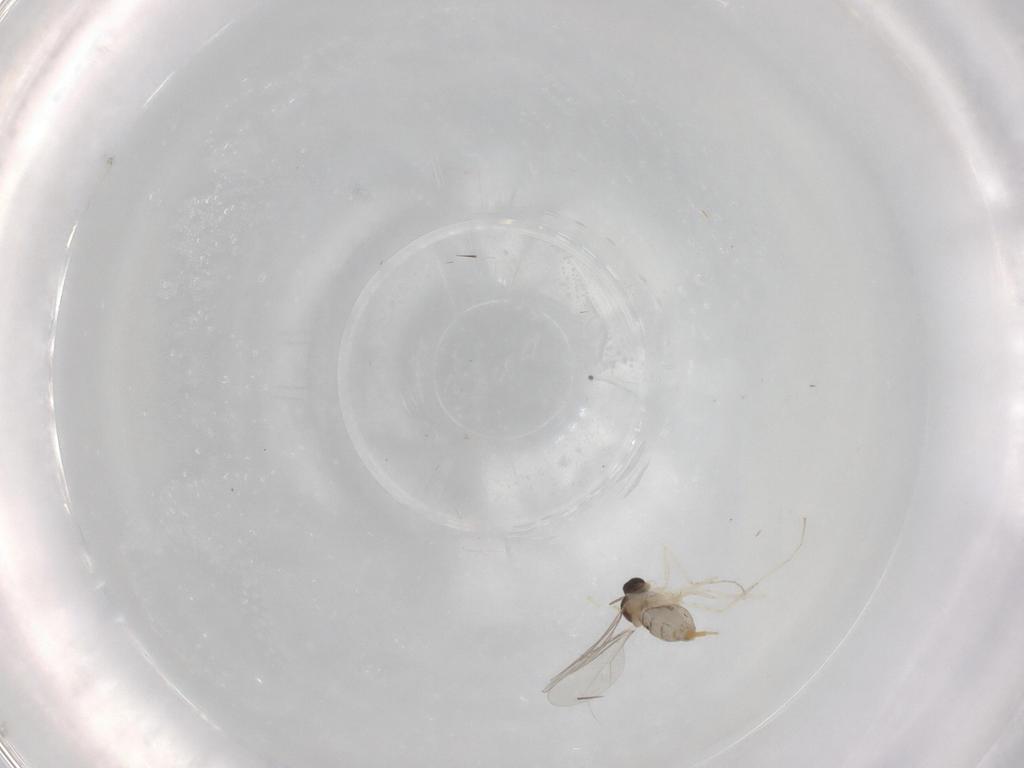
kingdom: Animalia
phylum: Arthropoda
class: Insecta
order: Diptera
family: Cecidomyiidae
